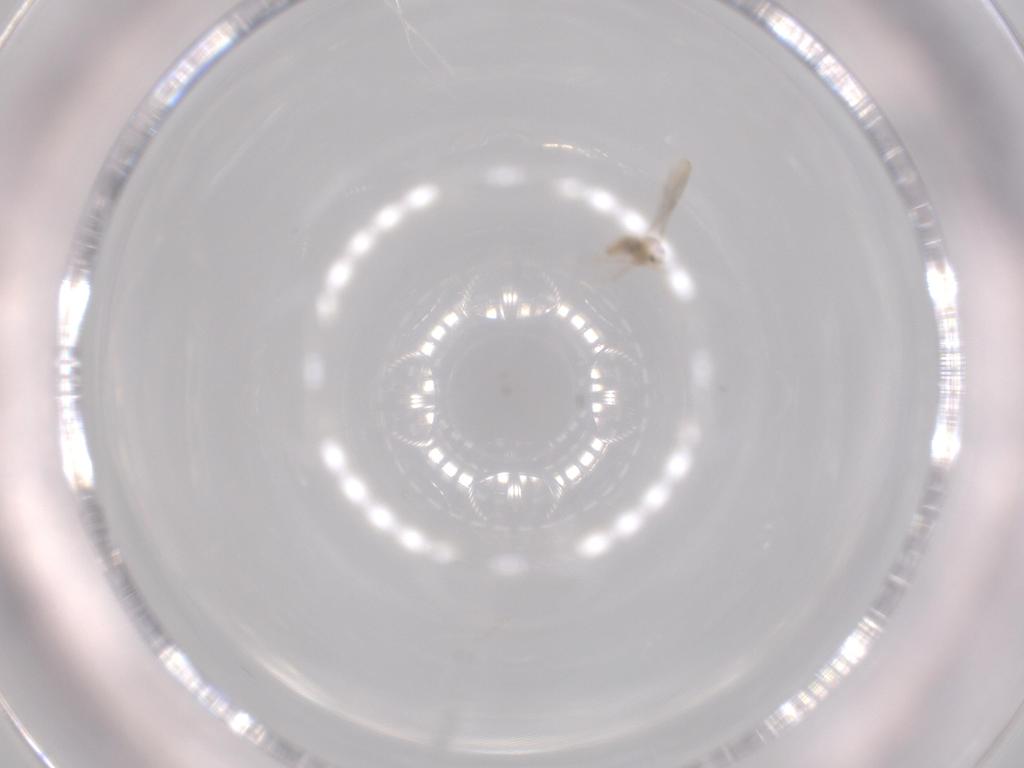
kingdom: Animalia
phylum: Arthropoda
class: Insecta
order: Diptera
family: Cecidomyiidae
